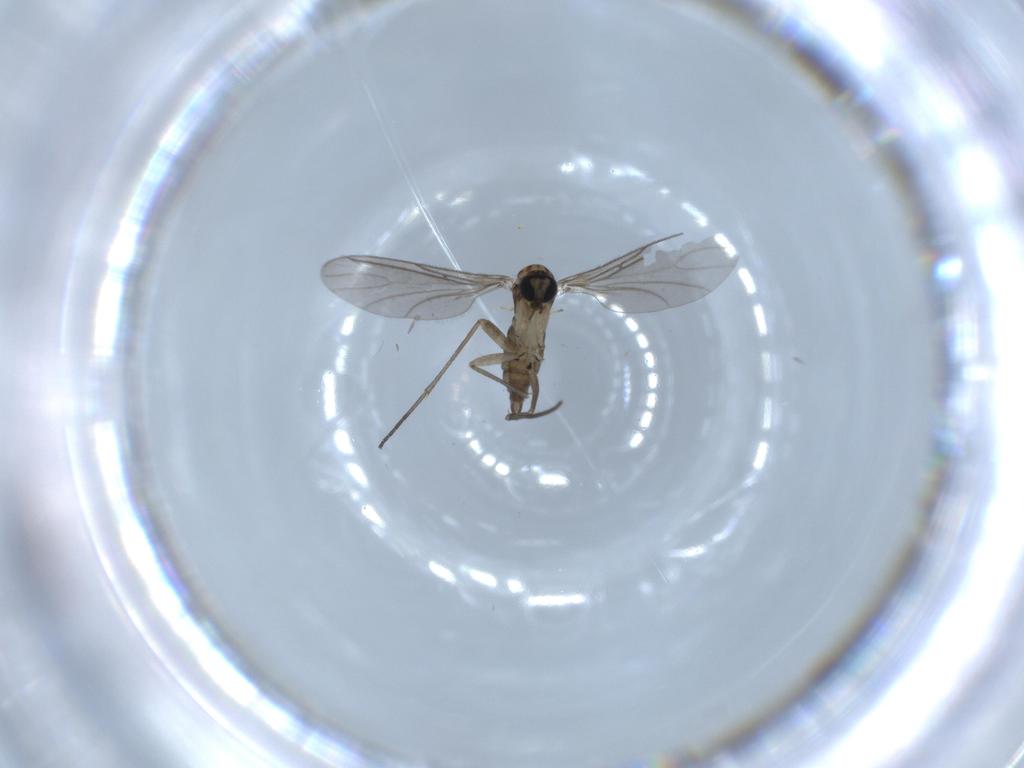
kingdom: Animalia
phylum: Arthropoda
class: Insecta
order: Diptera
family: Sciaridae
